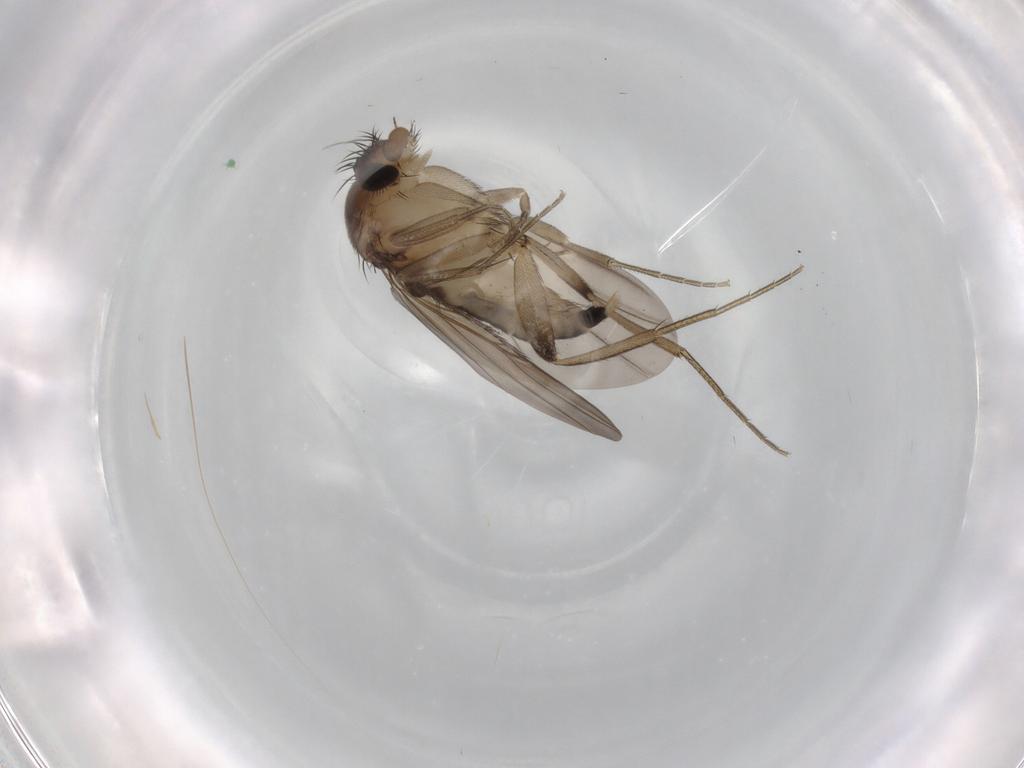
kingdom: Animalia
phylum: Arthropoda
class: Insecta
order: Diptera
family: Phoridae
